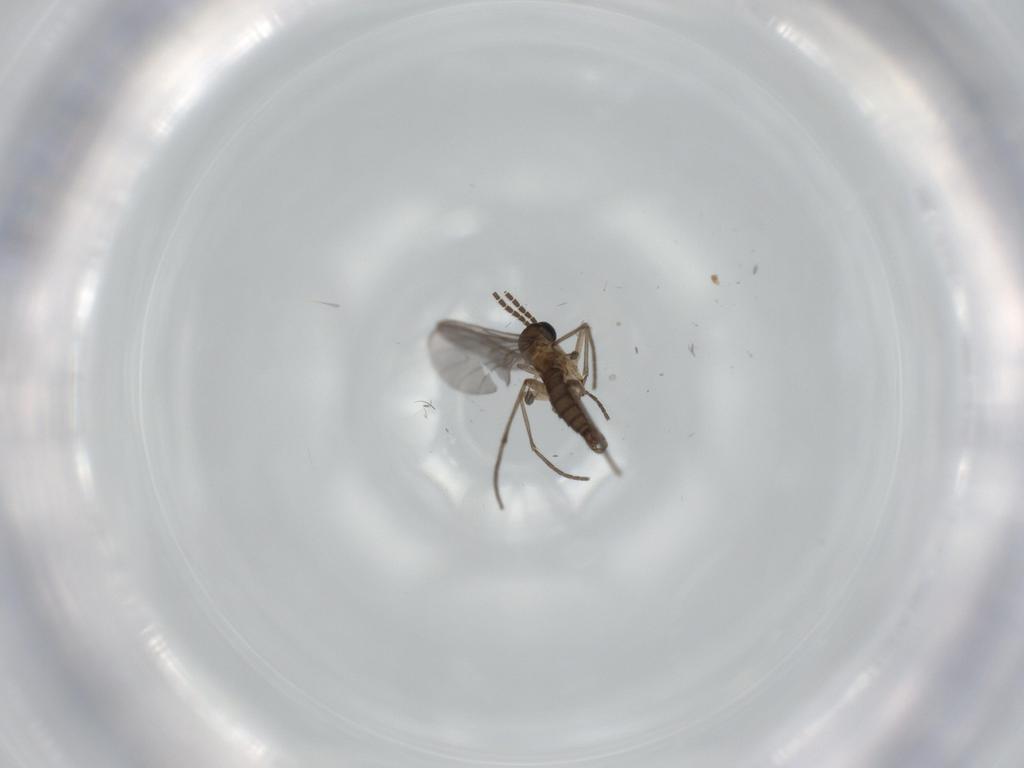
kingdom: Animalia
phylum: Arthropoda
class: Insecta
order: Diptera
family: Sciaridae
